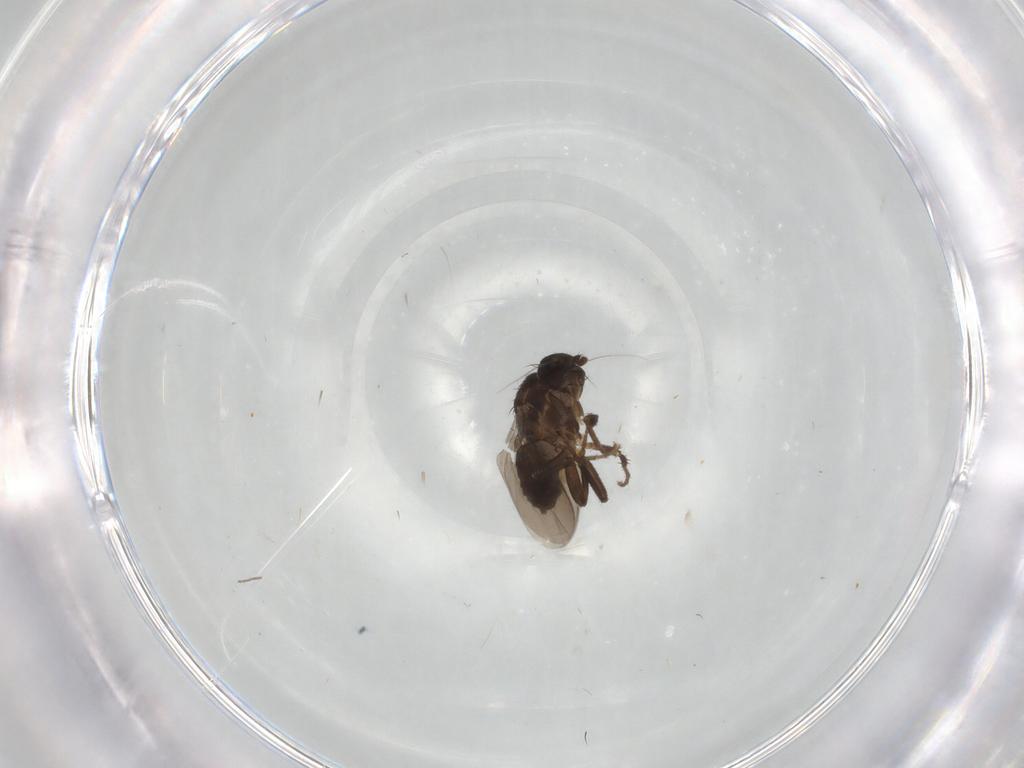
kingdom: Animalia
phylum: Arthropoda
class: Insecta
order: Diptera
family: Sphaeroceridae
